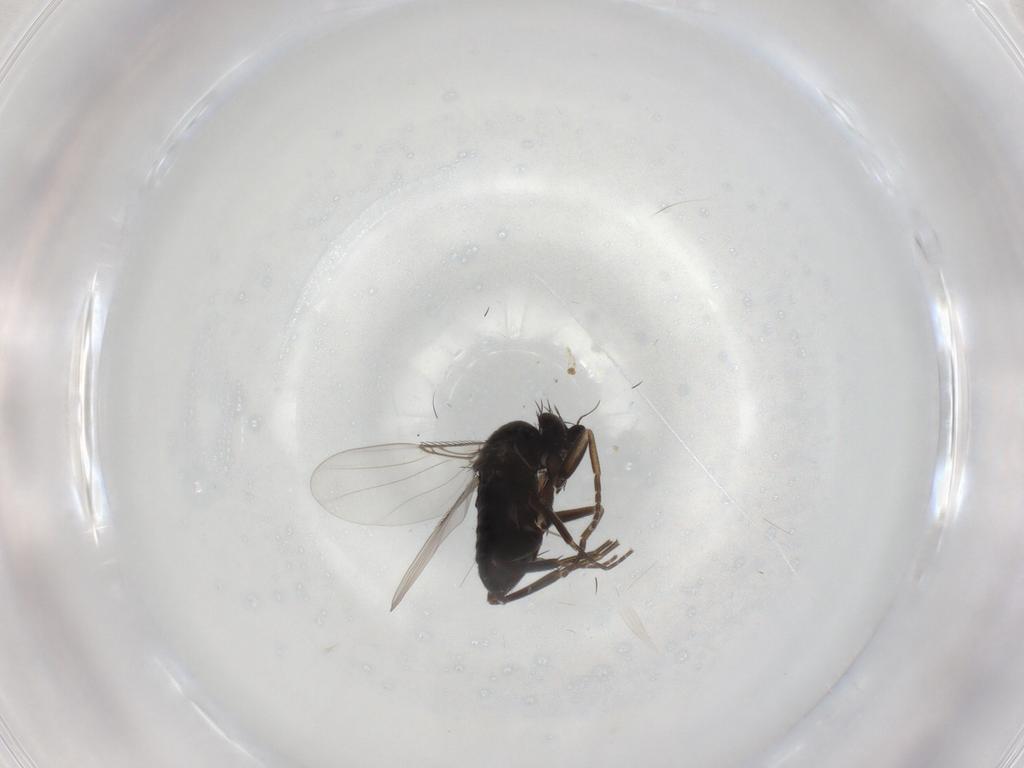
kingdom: Animalia
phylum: Arthropoda
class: Insecta
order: Diptera
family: Phoridae
